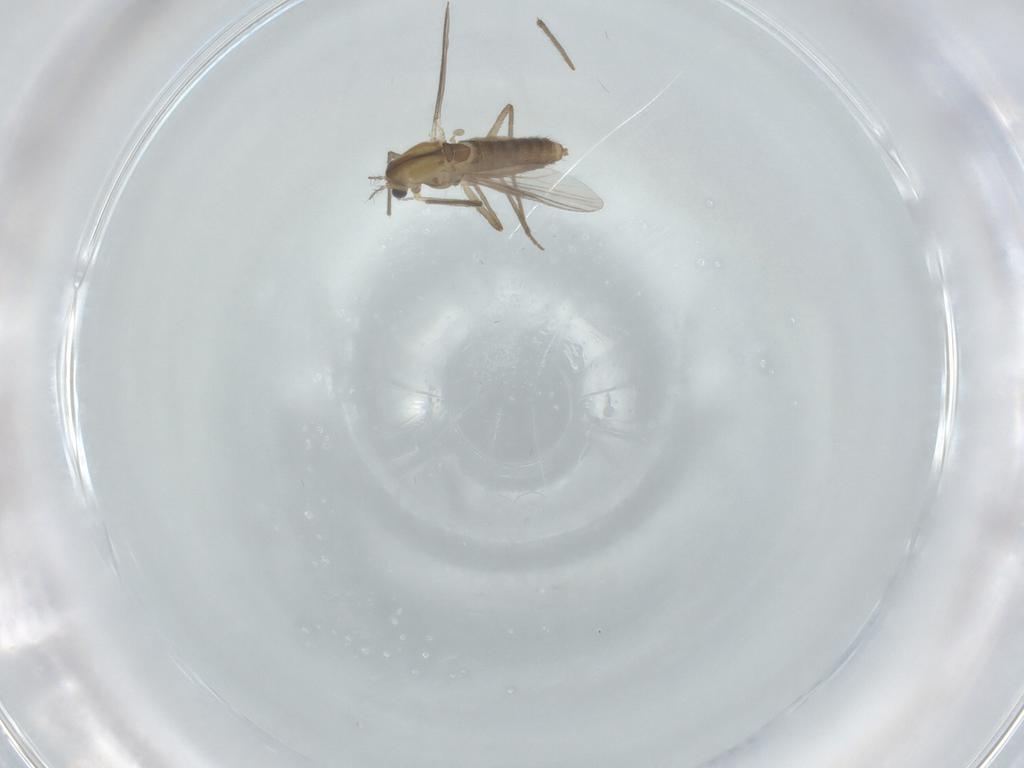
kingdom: Animalia
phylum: Arthropoda
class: Insecta
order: Diptera
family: Chironomidae
